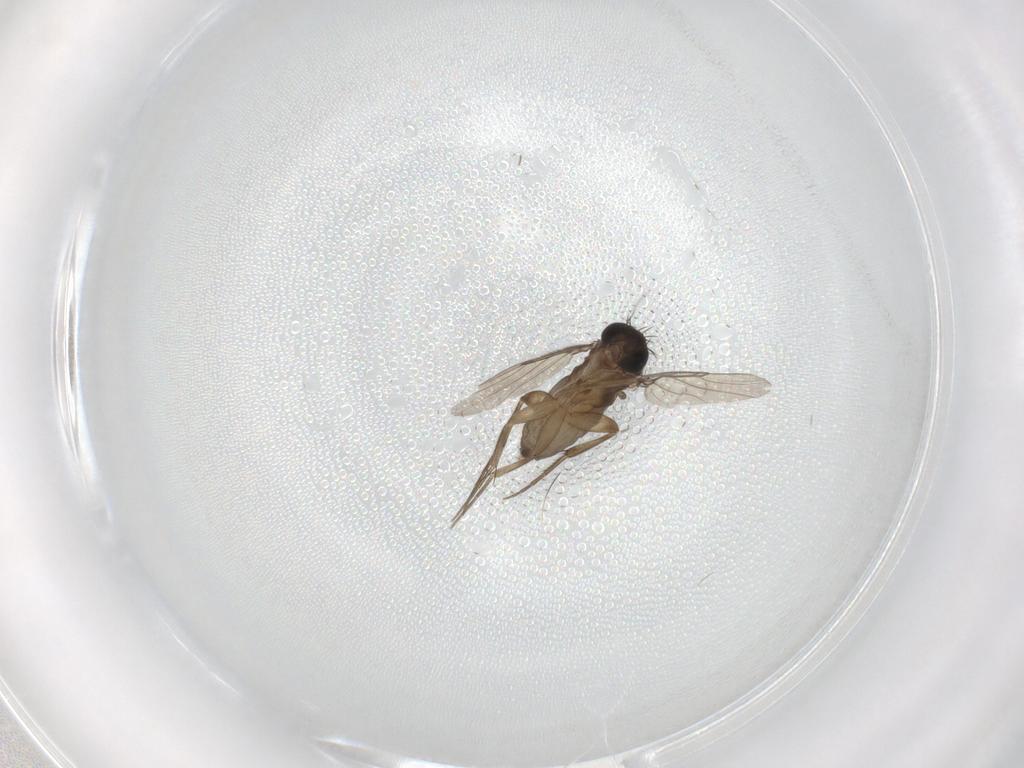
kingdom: Animalia
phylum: Arthropoda
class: Insecta
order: Diptera
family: Phoridae
